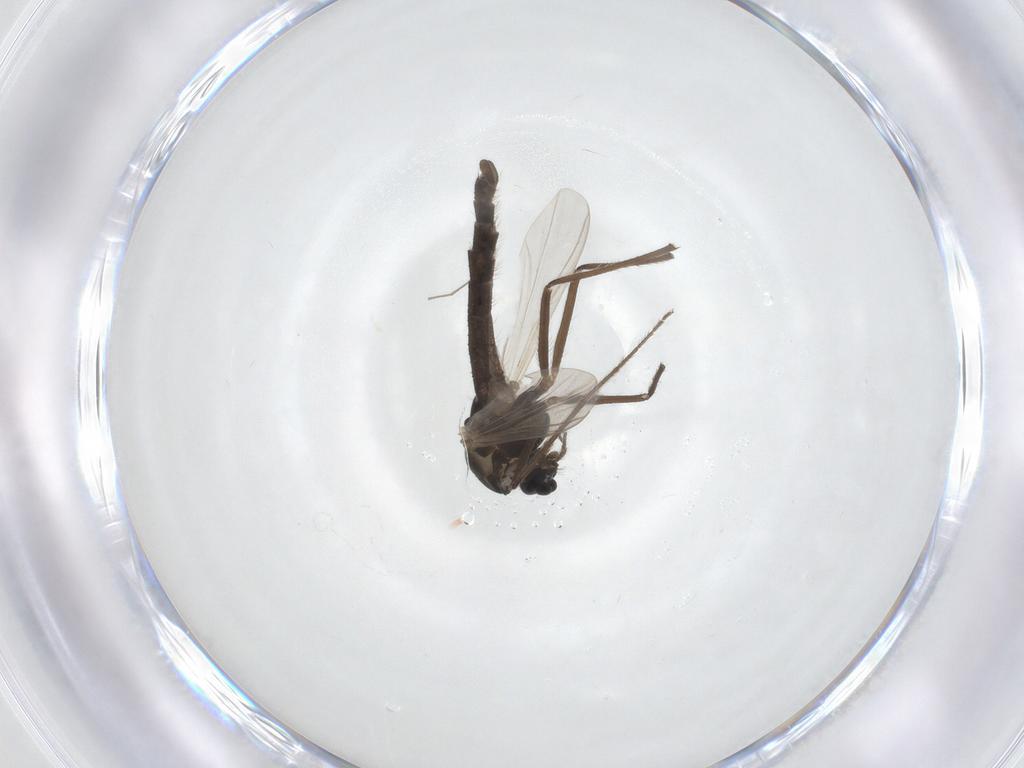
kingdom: Animalia
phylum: Arthropoda
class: Insecta
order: Diptera
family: Chironomidae
